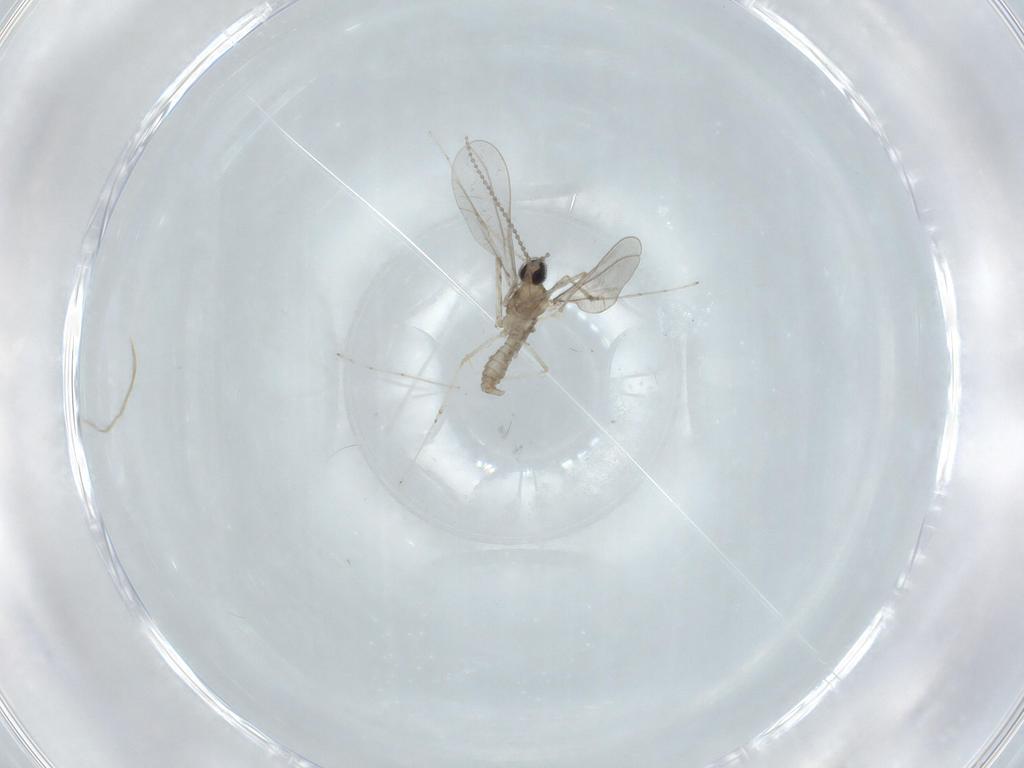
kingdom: Animalia
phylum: Arthropoda
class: Insecta
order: Diptera
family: Cecidomyiidae
